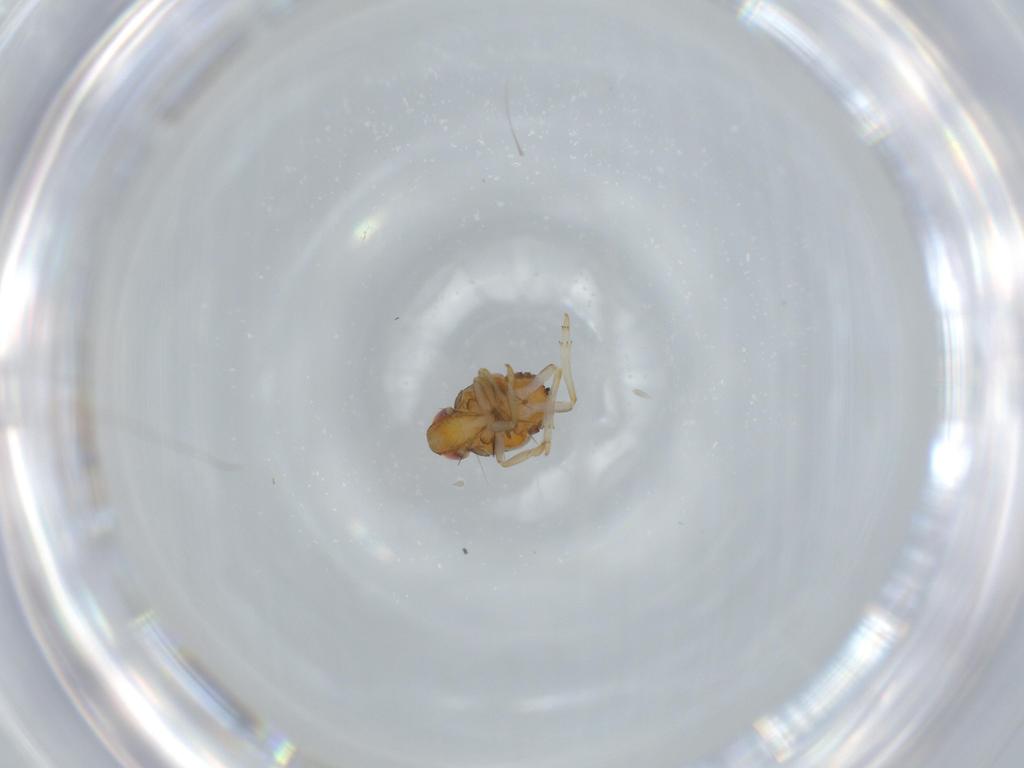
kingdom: Animalia
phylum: Arthropoda
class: Insecta
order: Hemiptera
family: Issidae
